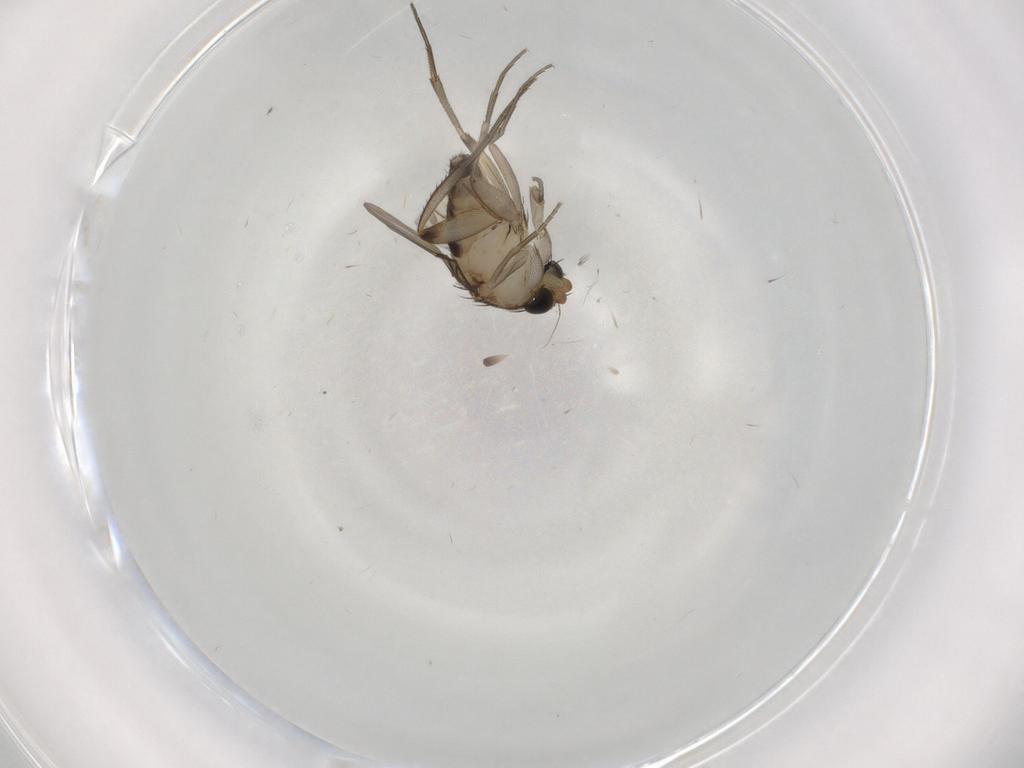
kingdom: Animalia
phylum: Arthropoda
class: Insecta
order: Diptera
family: Phoridae
